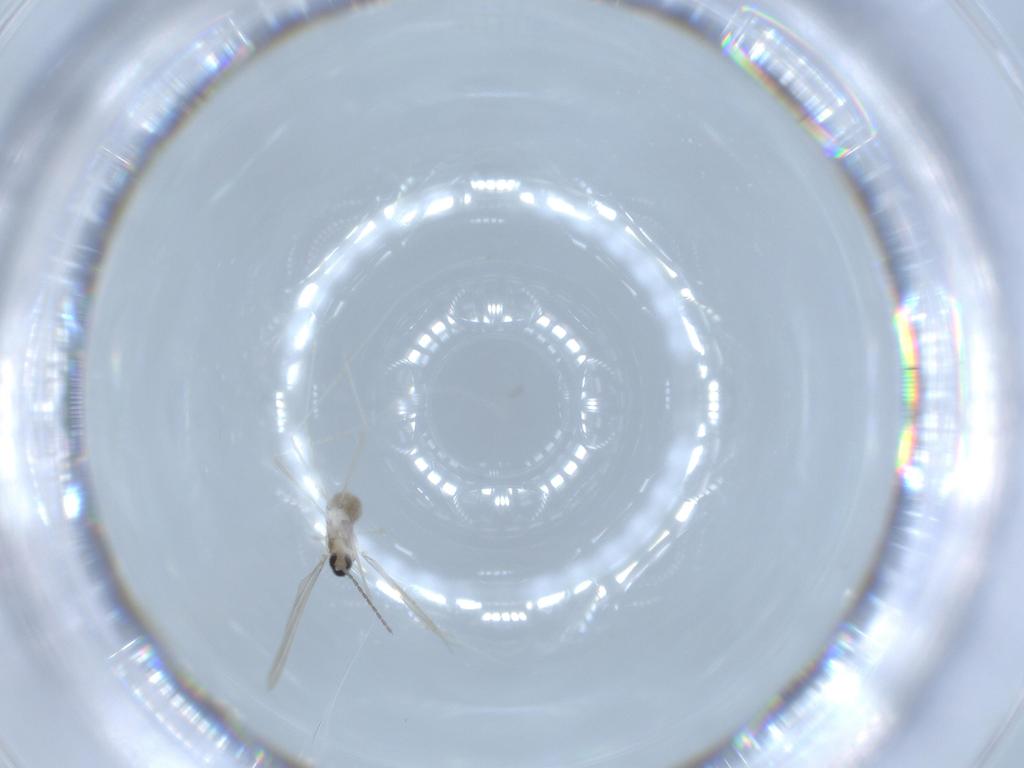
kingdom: Animalia
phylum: Arthropoda
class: Insecta
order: Diptera
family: Cecidomyiidae
